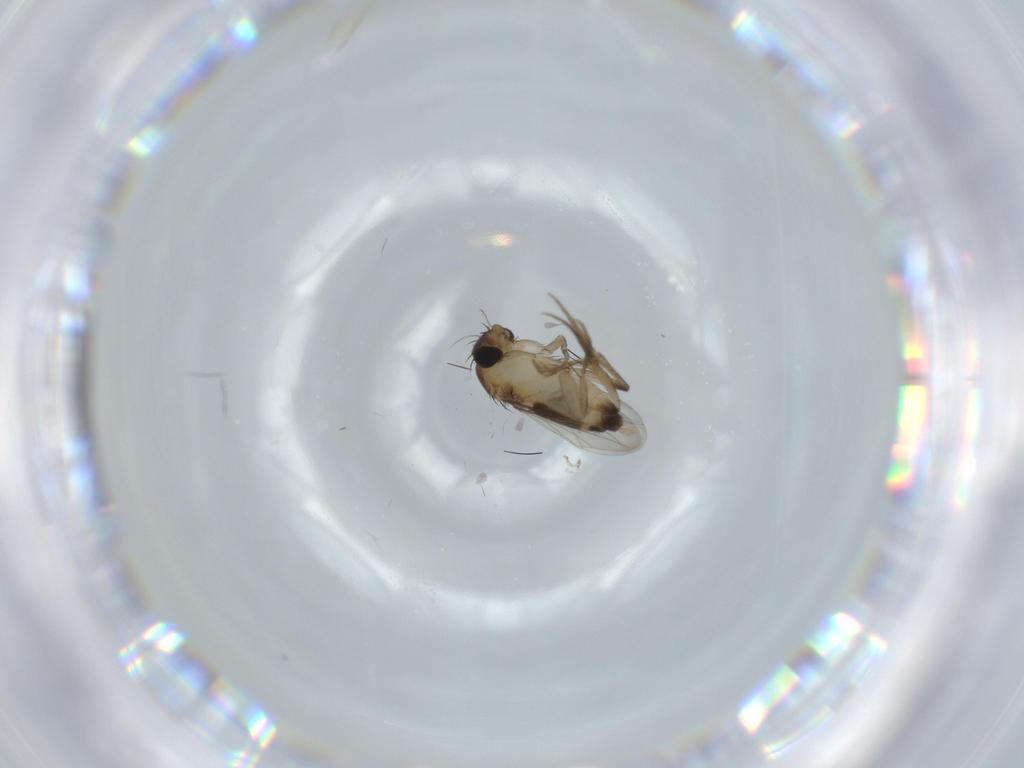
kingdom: Animalia
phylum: Arthropoda
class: Insecta
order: Diptera
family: Cecidomyiidae
